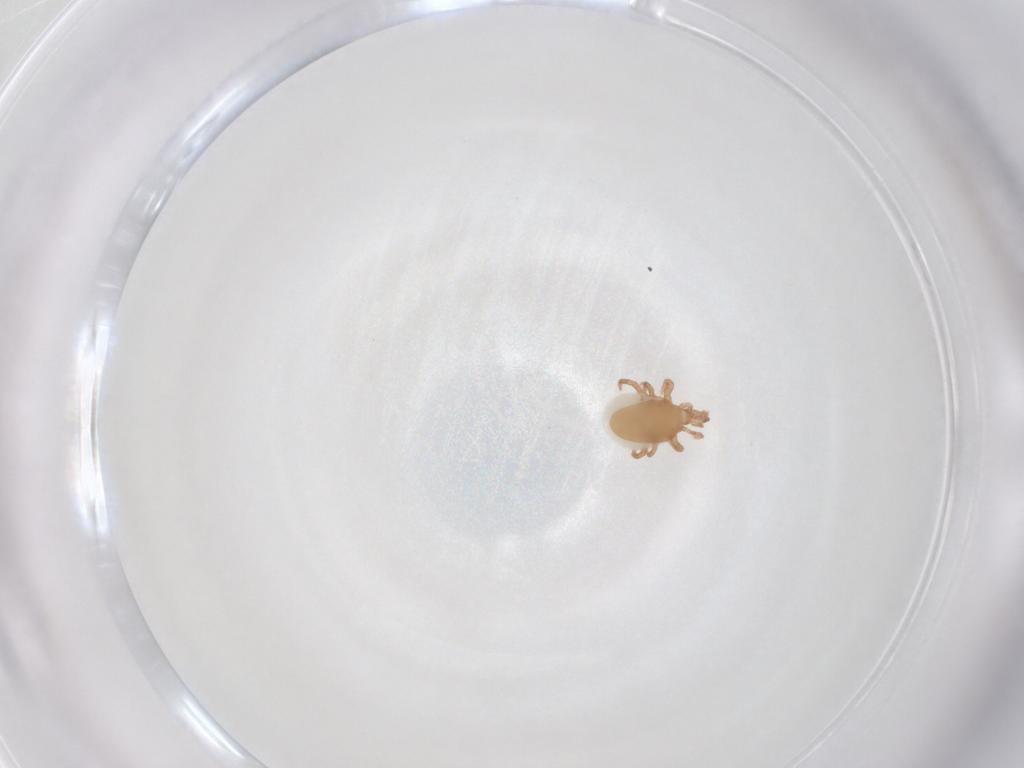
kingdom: Animalia
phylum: Arthropoda
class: Arachnida
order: Mesostigmata
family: Macrochelidae
